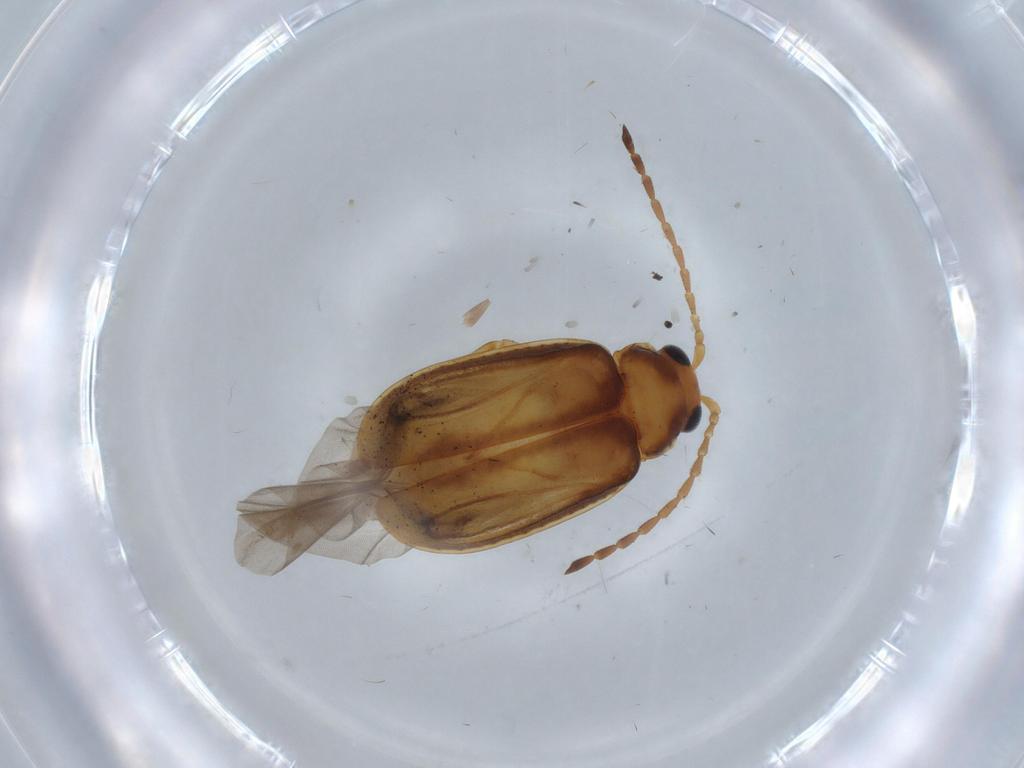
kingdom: Animalia
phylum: Arthropoda
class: Insecta
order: Coleoptera
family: Chrysomelidae
